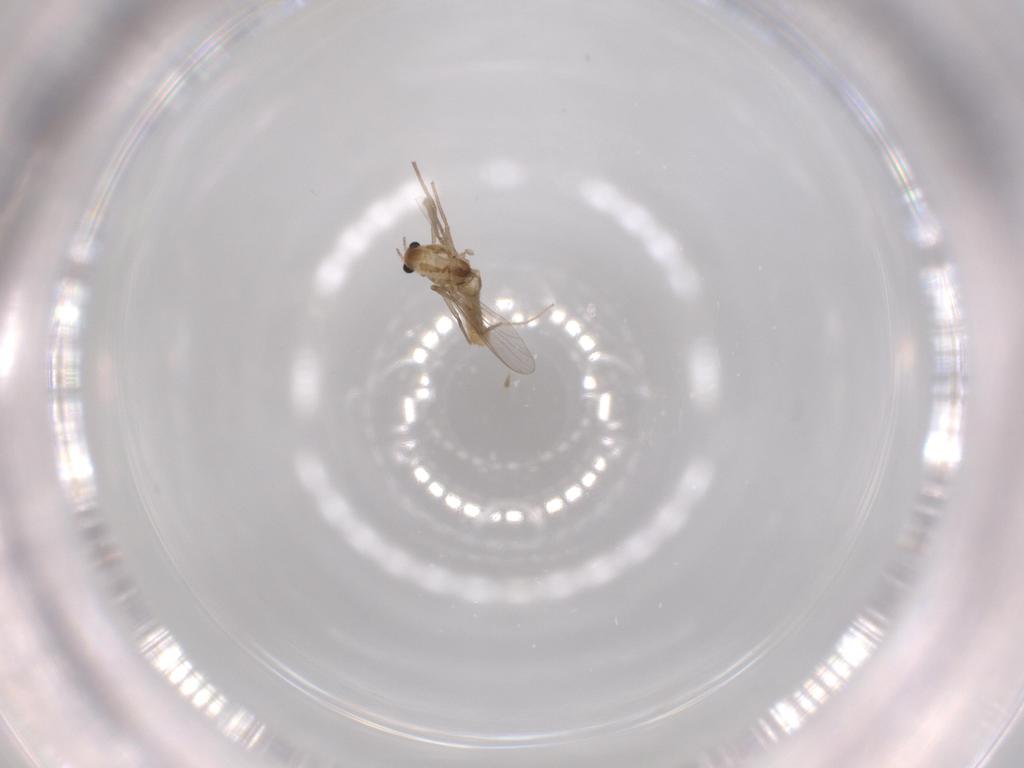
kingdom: Animalia
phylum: Arthropoda
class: Insecta
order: Diptera
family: Chironomidae
